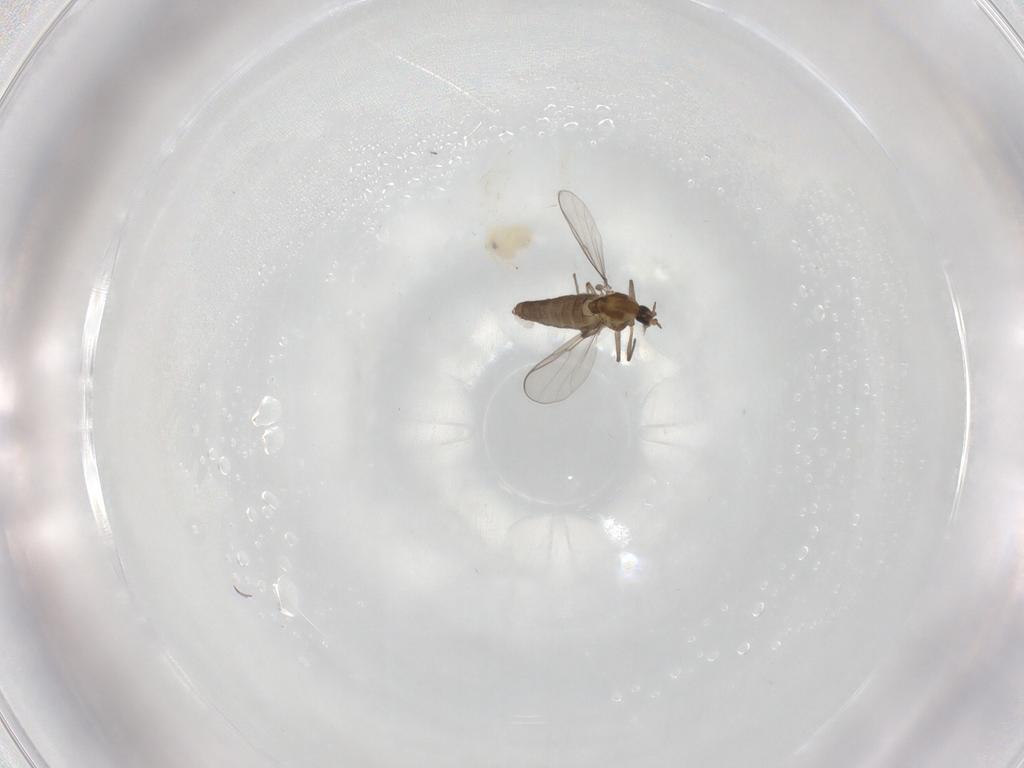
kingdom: Animalia
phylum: Arthropoda
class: Insecta
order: Diptera
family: Chironomidae
